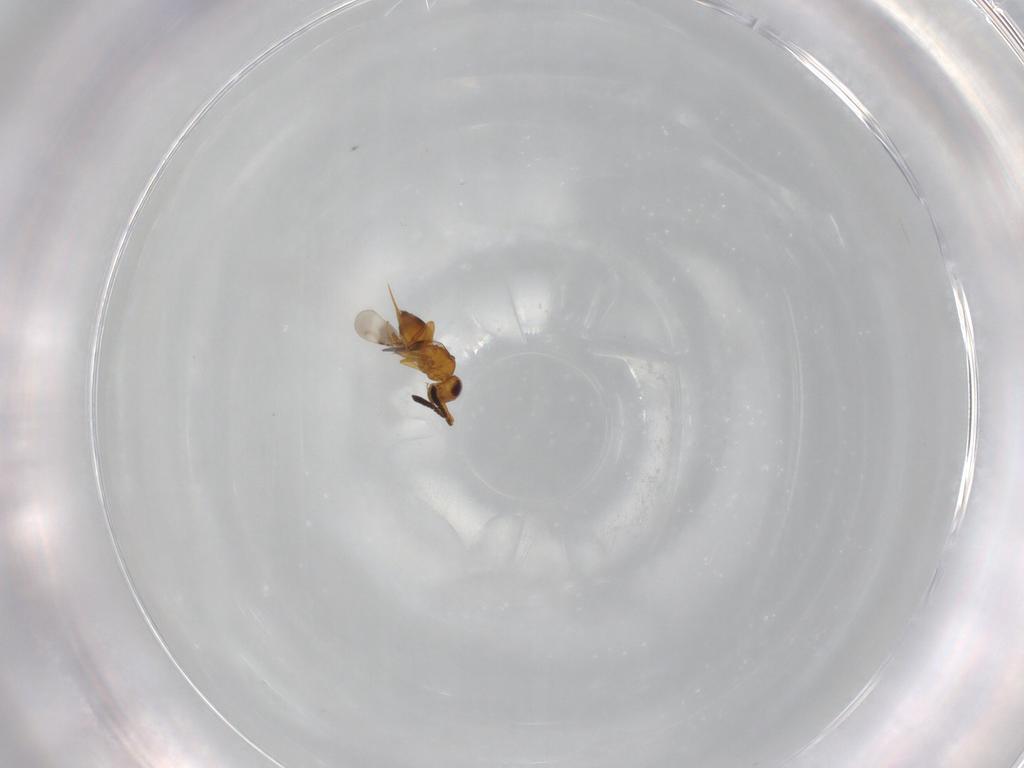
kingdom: Animalia
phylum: Arthropoda
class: Insecta
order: Hymenoptera
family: Ceraphronidae
